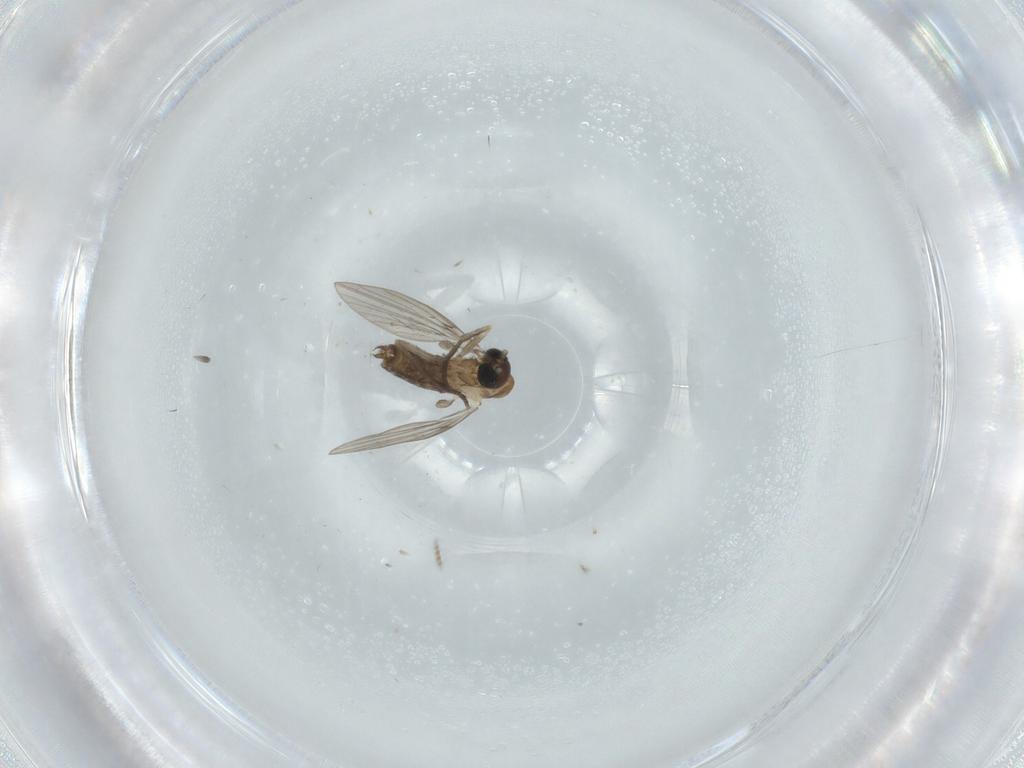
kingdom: Animalia
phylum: Arthropoda
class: Insecta
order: Diptera
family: Psychodidae
